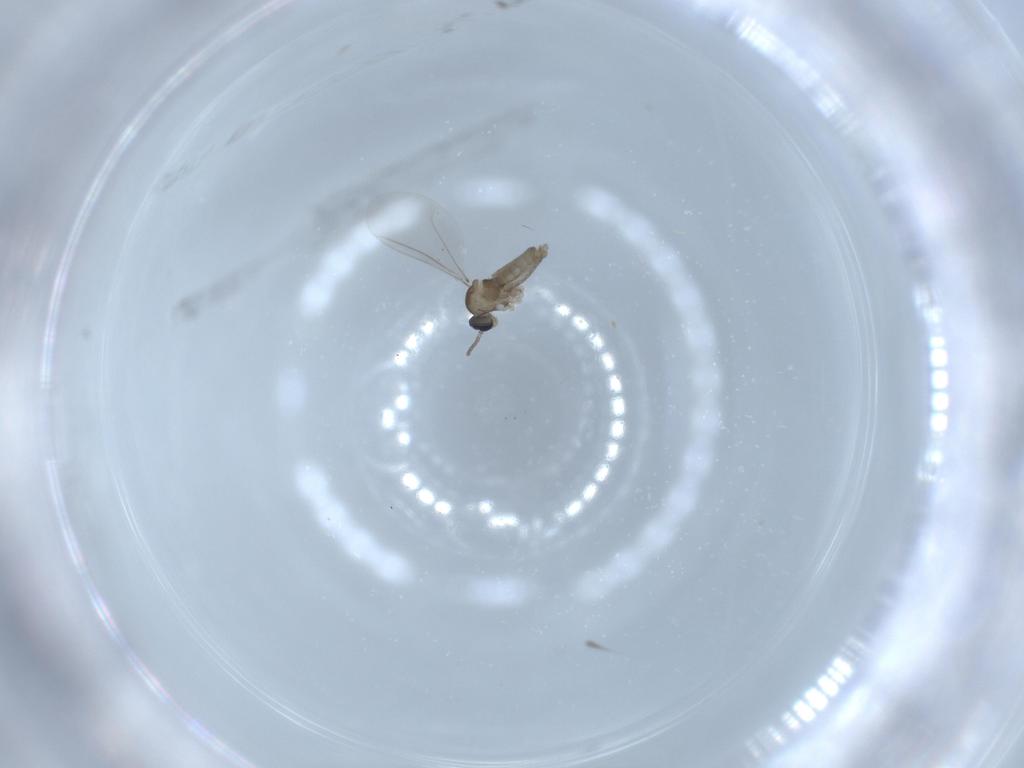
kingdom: Animalia
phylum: Arthropoda
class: Insecta
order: Diptera
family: Cecidomyiidae
